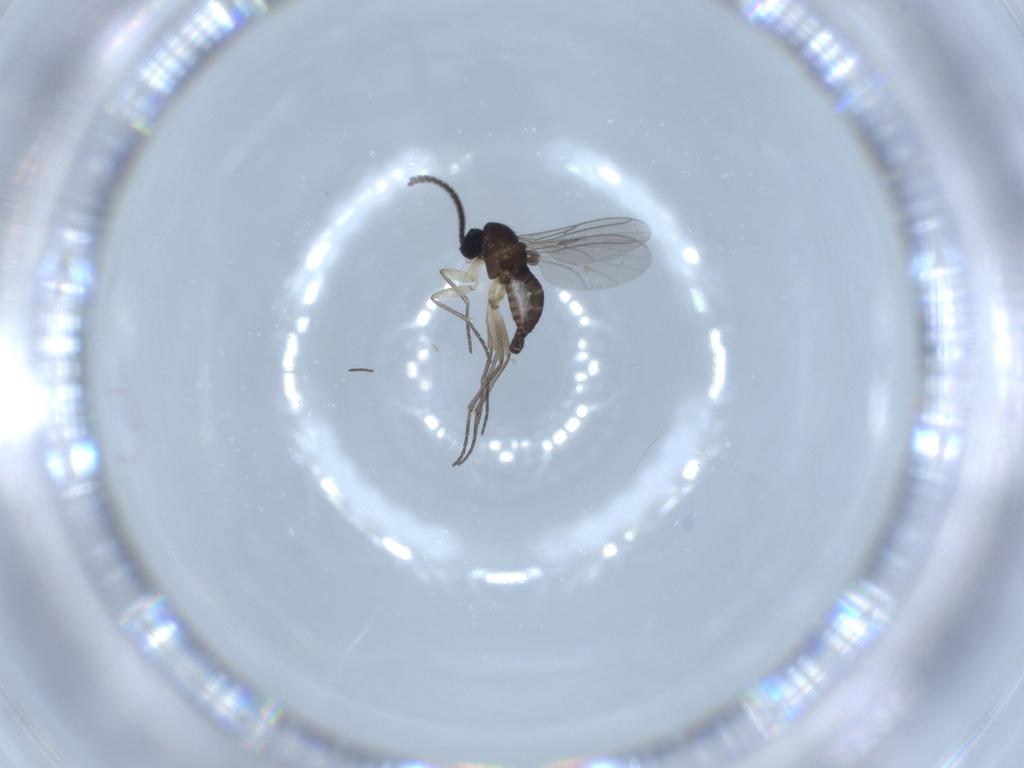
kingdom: Animalia
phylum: Arthropoda
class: Insecta
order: Diptera
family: Sciaridae
